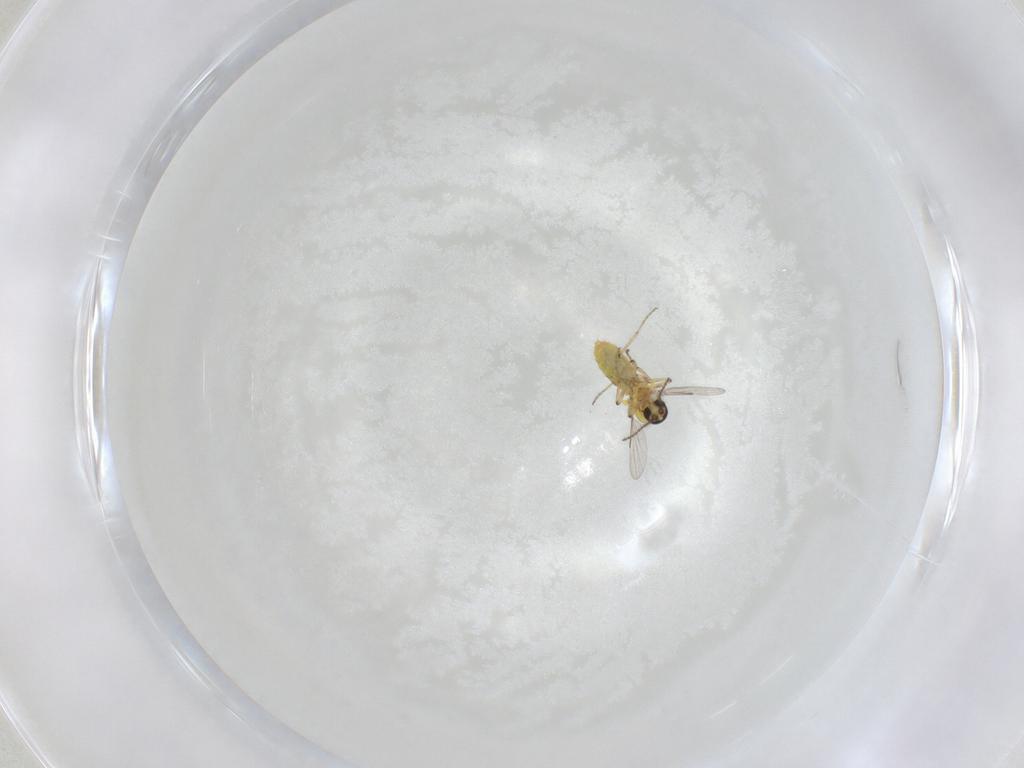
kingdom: Animalia
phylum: Arthropoda
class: Insecta
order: Diptera
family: Ceratopogonidae
